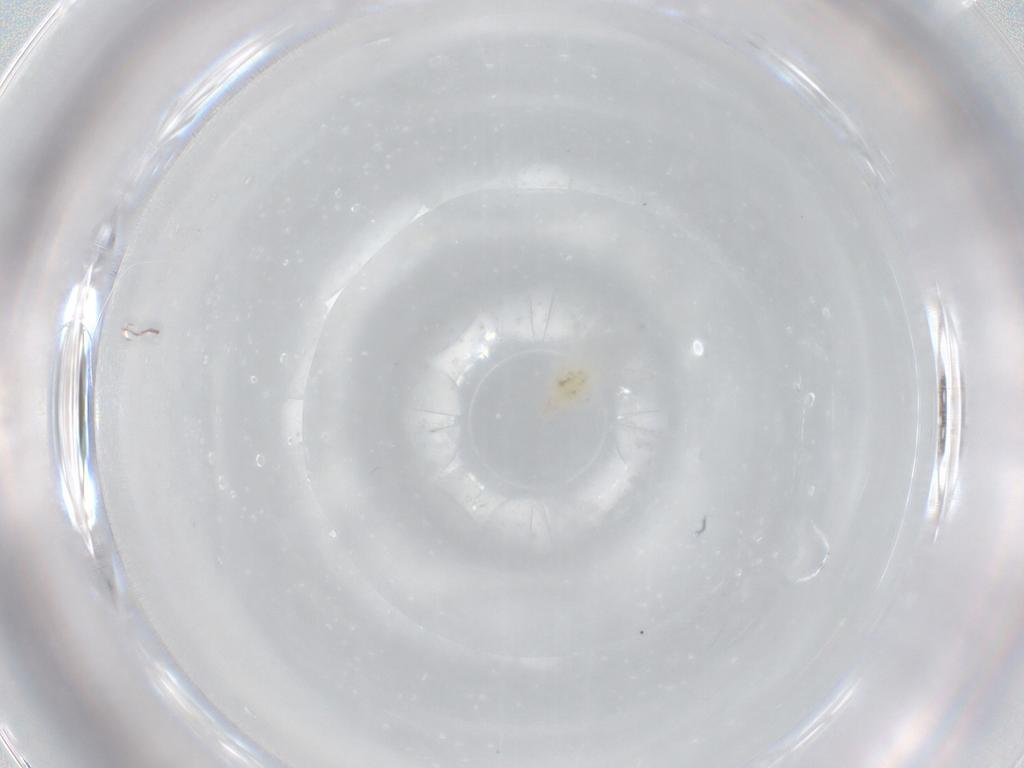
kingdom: Animalia
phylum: Arthropoda
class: Arachnida
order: Trombidiformes
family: Cunaxidae
